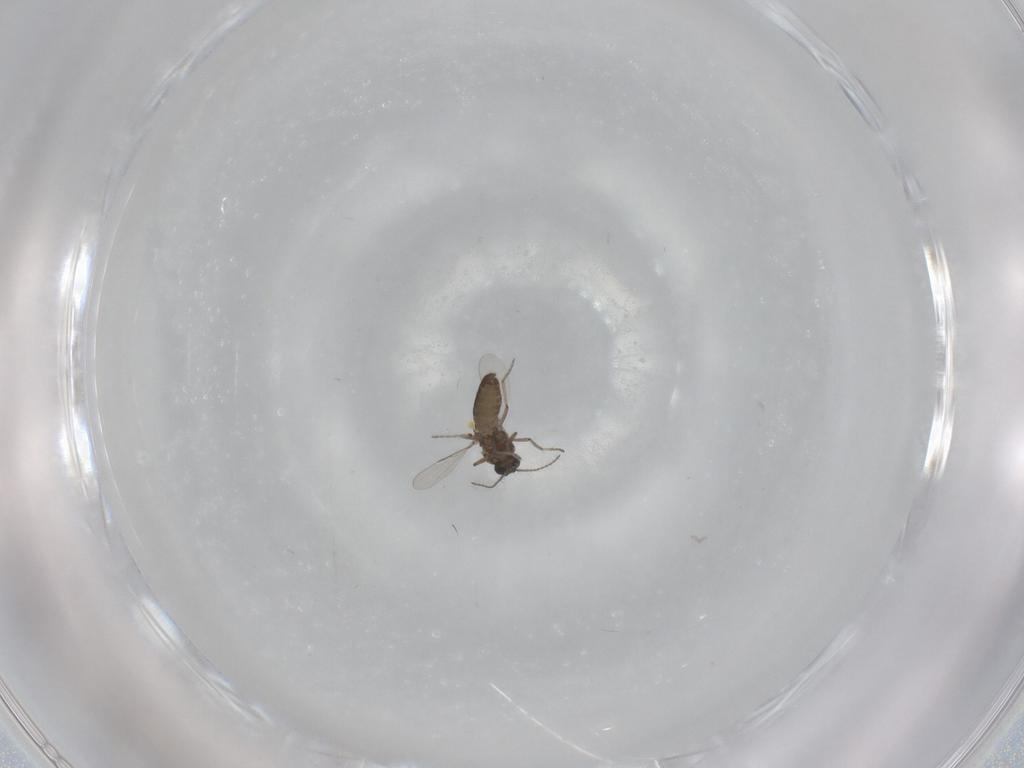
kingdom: Animalia
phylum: Arthropoda
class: Insecta
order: Diptera
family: Ceratopogonidae
